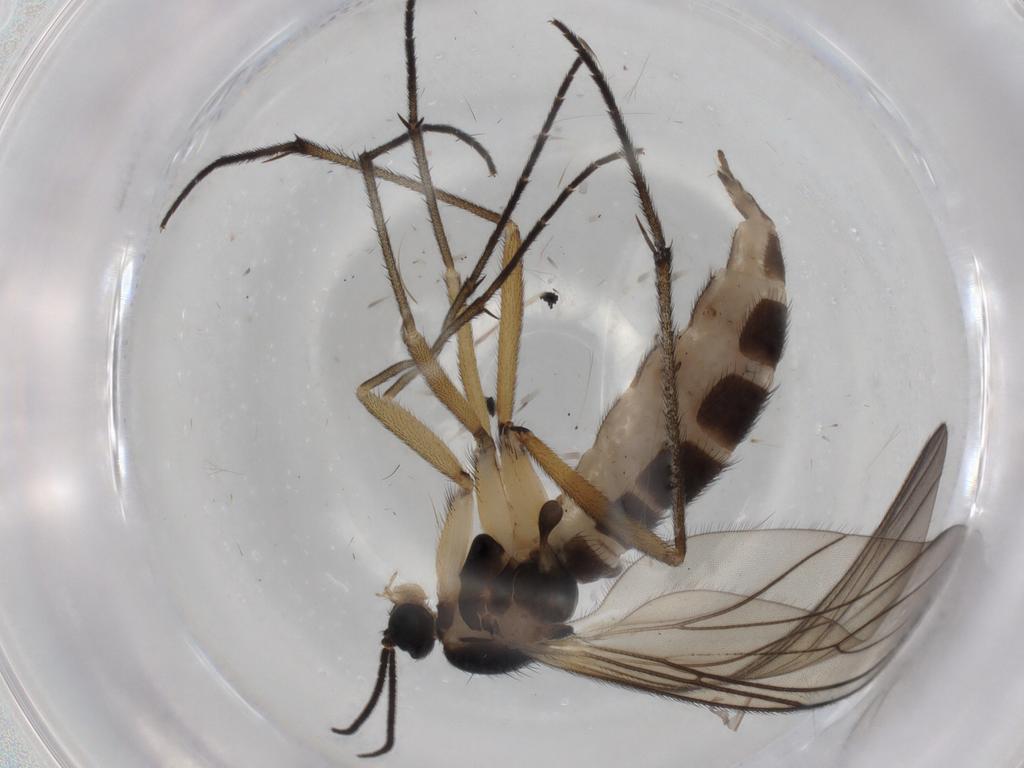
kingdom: Animalia
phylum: Arthropoda
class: Insecta
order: Diptera
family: Sciaridae
